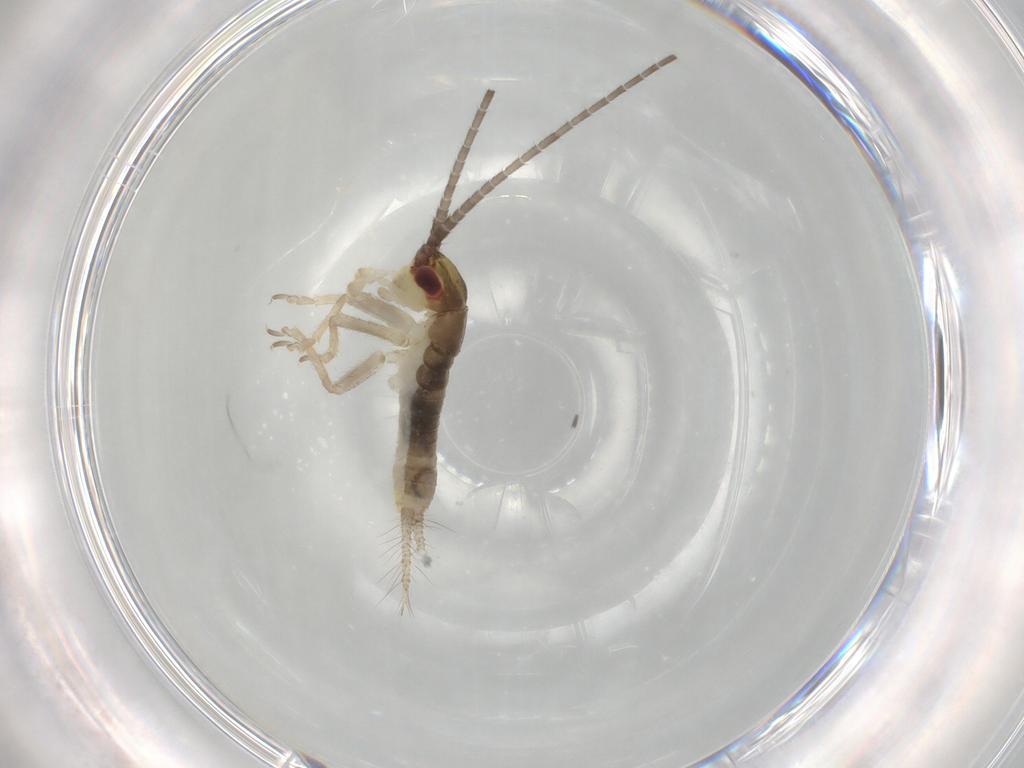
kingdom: Animalia
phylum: Arthropoda
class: Insecta
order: Orthoptera
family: Gryllidae
